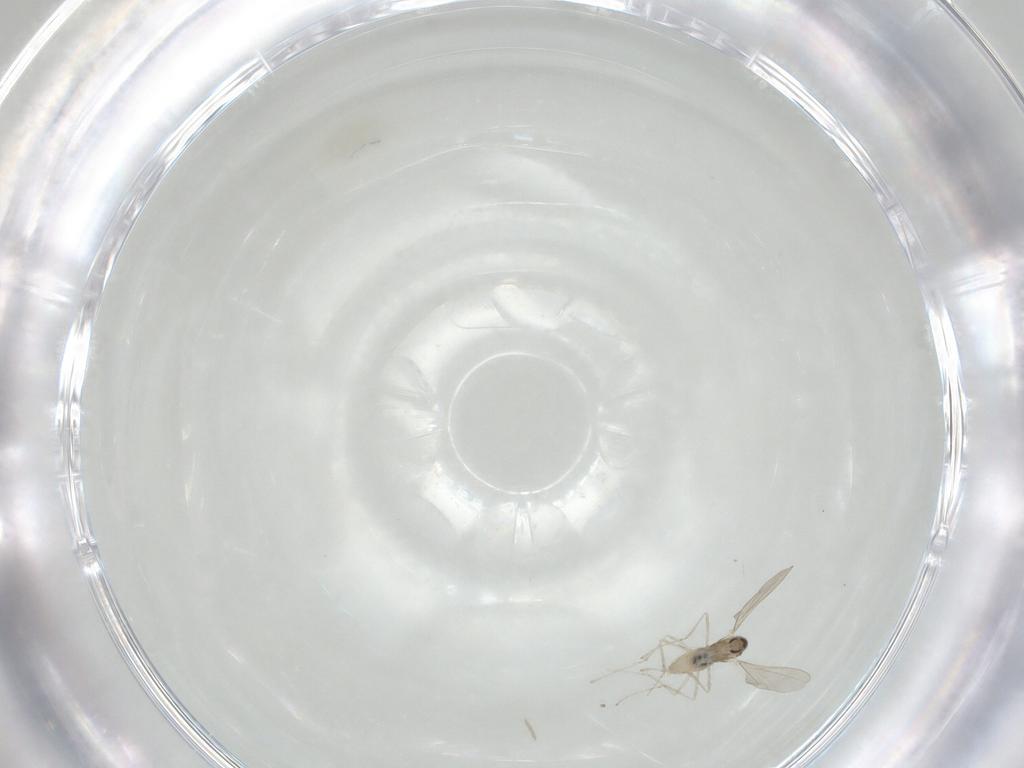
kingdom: Animalia
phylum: Arthropoda
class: Insecta
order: Diptera
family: Cecidomyiidae
